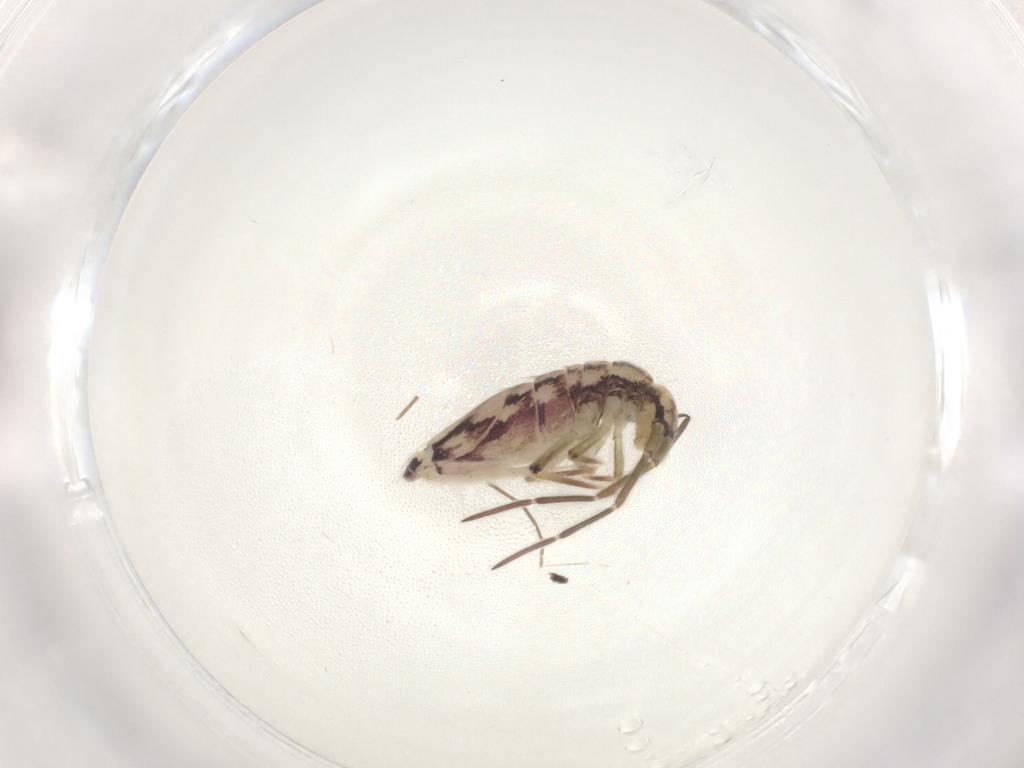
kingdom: Animalia
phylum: Arthropoda
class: Collembola
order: Entomobryomorpha
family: Entomobryidae
